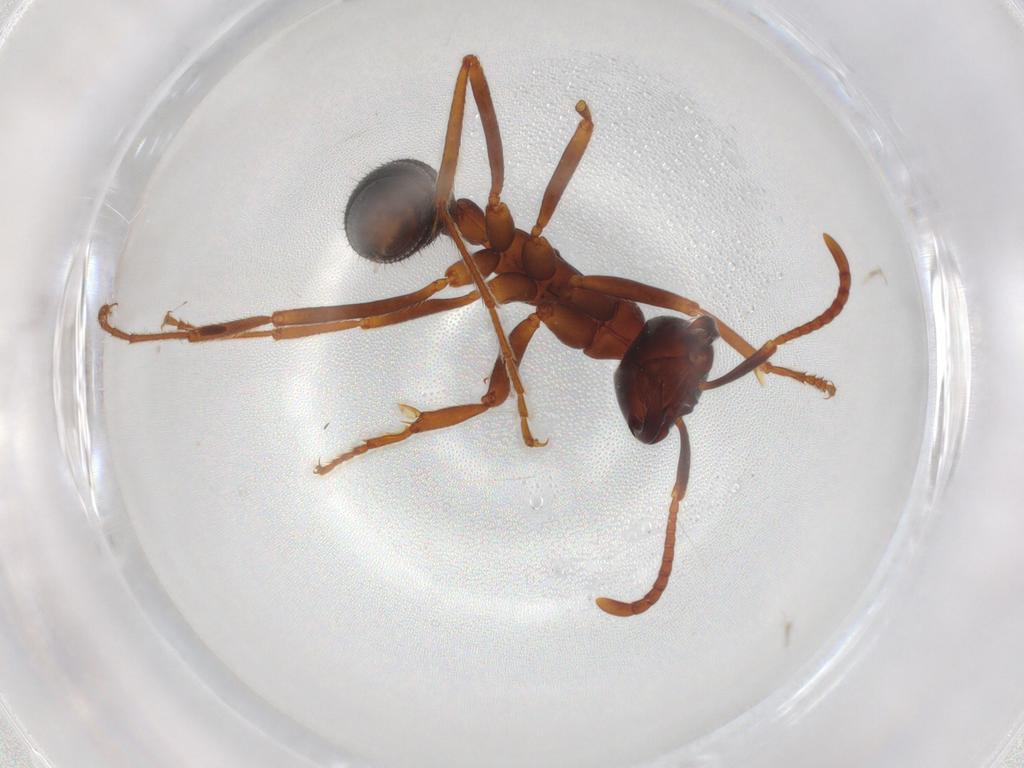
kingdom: Animalia
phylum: Arthropoda
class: Insecta
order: Hymenoptera
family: Formicidae
